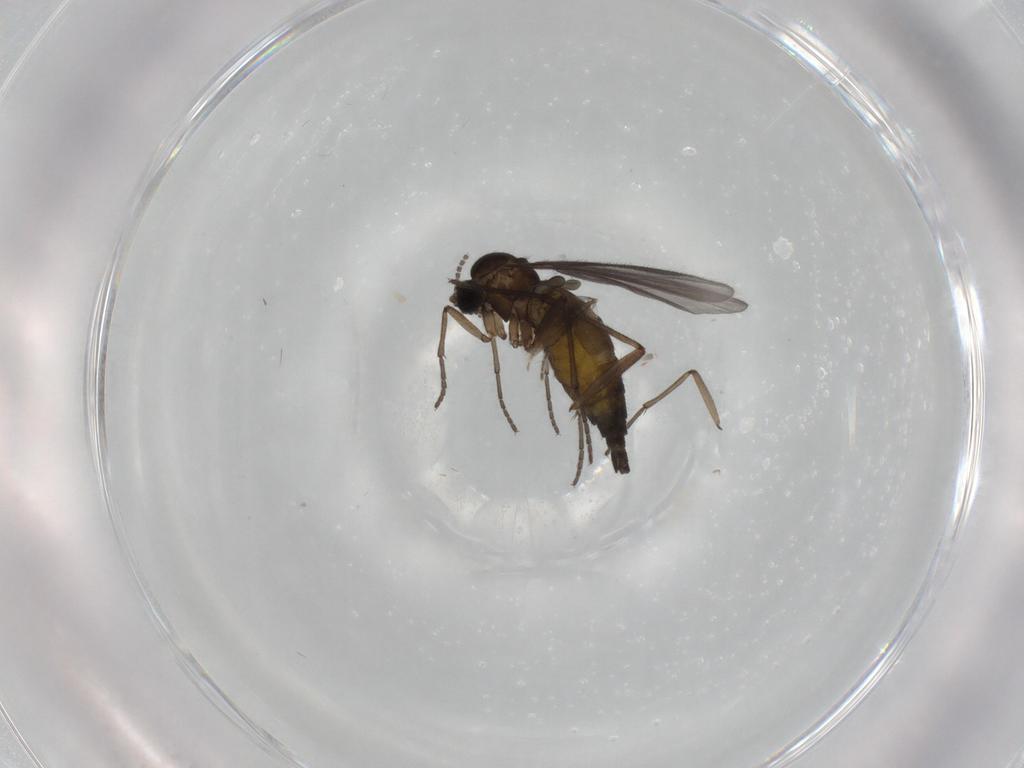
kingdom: Animalia
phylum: Arthropoda
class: Insecta
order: Diptera
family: Sciaridae
